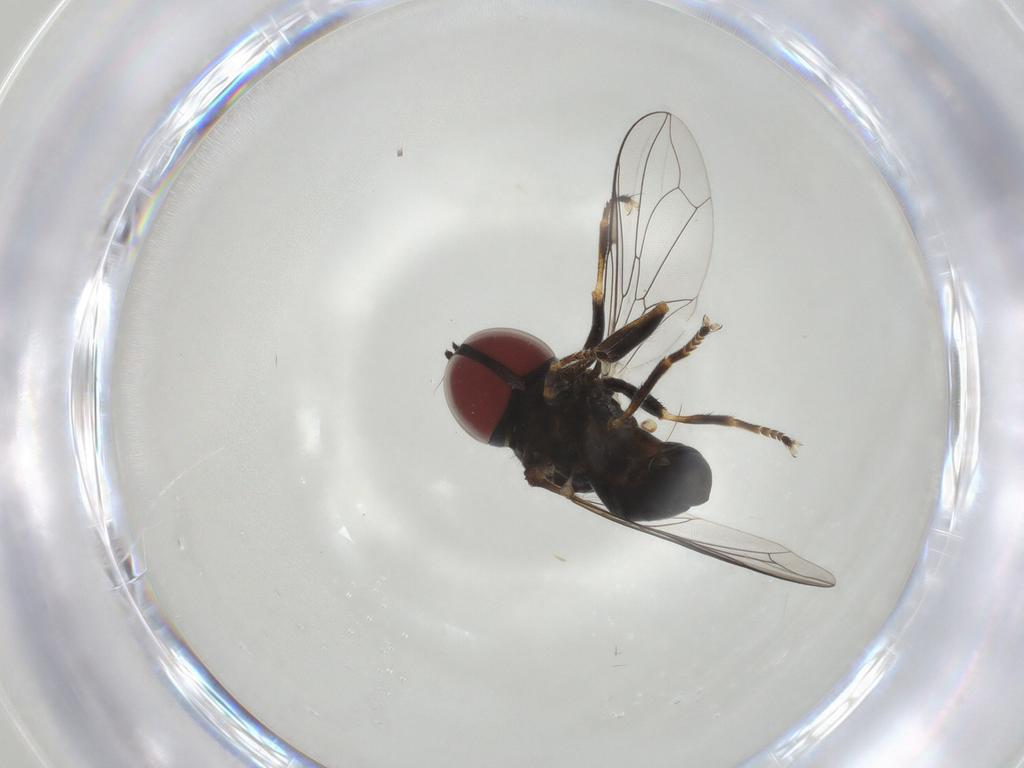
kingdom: Animalia
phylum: Arthropoda
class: Insecta
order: Diptera
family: Pipunculidae
